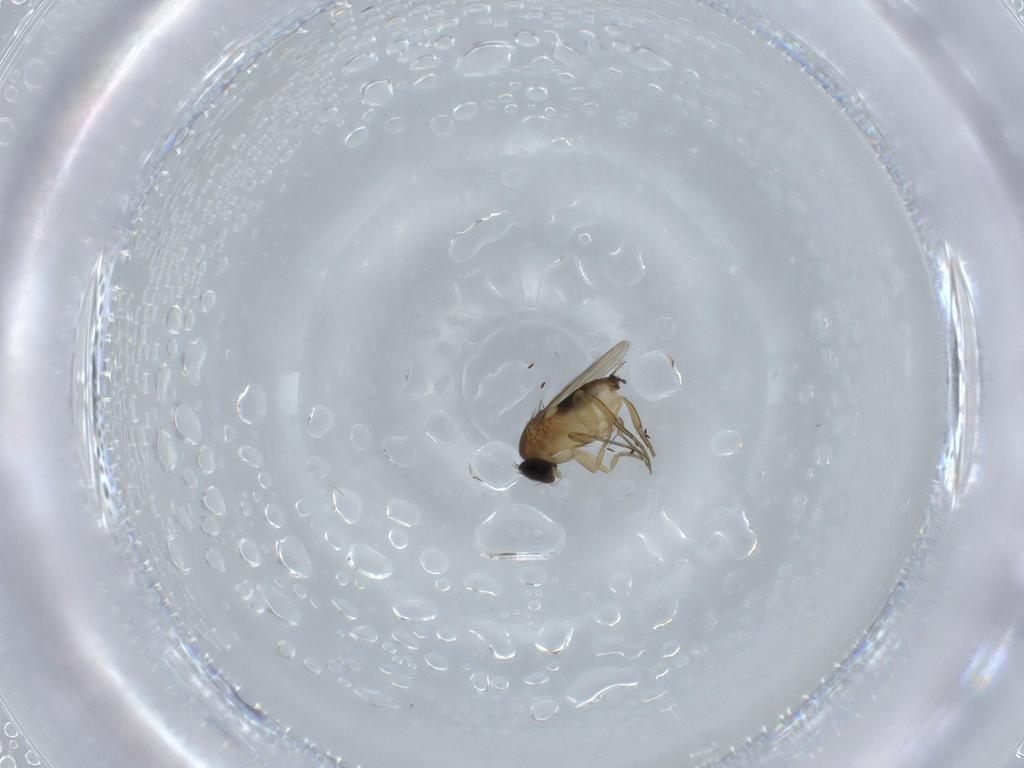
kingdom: Animalia
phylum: Arthropoda
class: Insecta
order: Diptera
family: Phoridae
